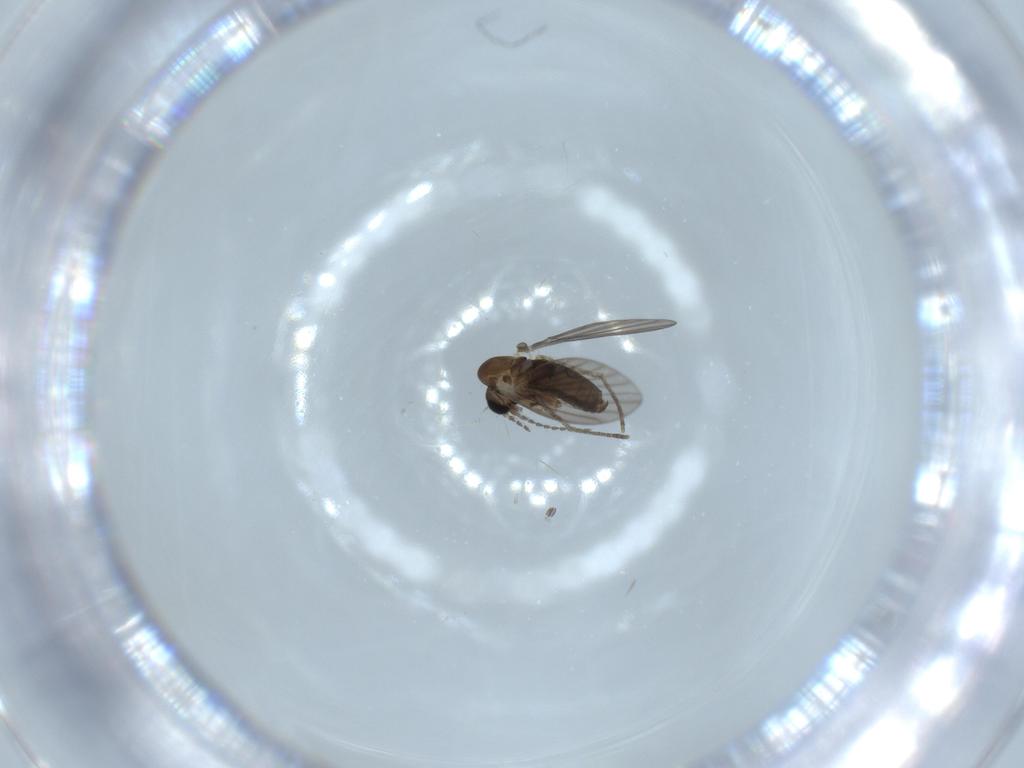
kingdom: Animalia
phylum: Arthropoda
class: Insecta
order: Diptera
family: Psychodidae
